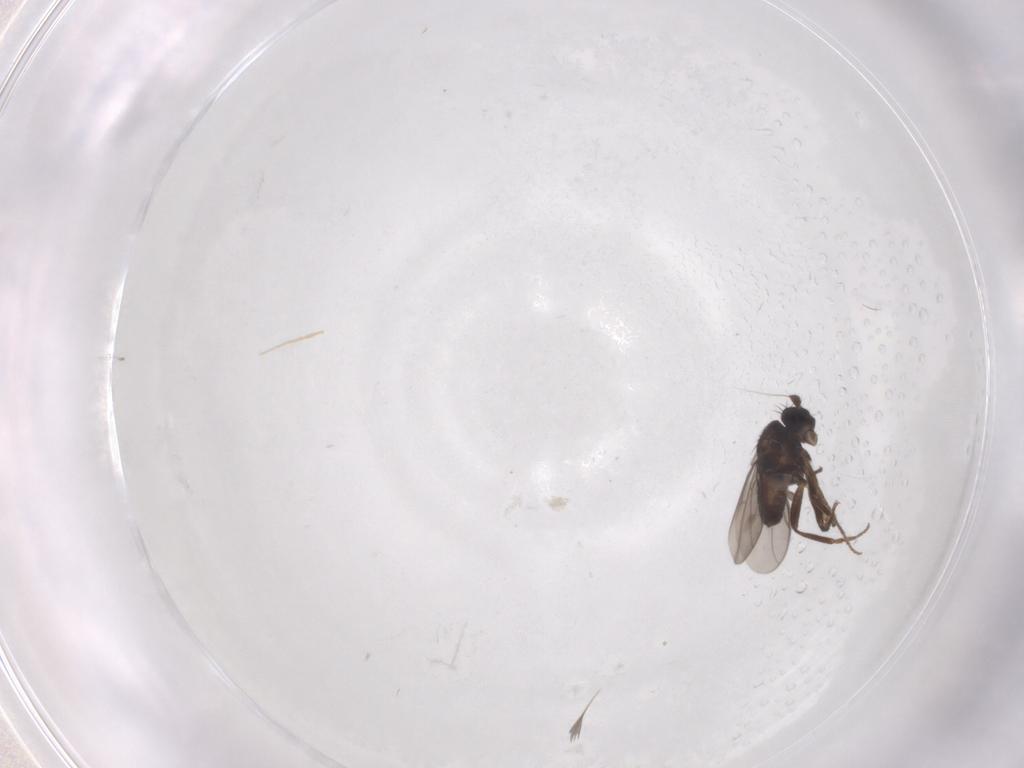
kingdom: Animalia
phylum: Arthropoda
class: Insecta
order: Diptera
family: Sphaeroceridae
